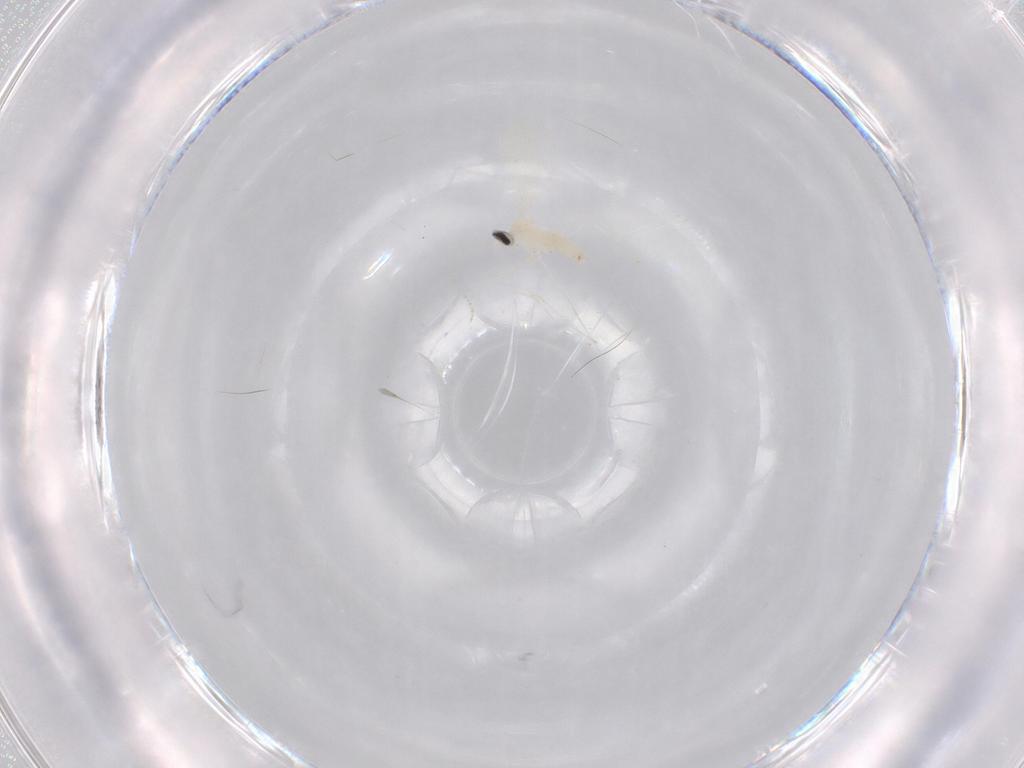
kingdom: Animalia
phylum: Arthropoda
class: Insecta
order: Diptera
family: Cecidomyiidae
